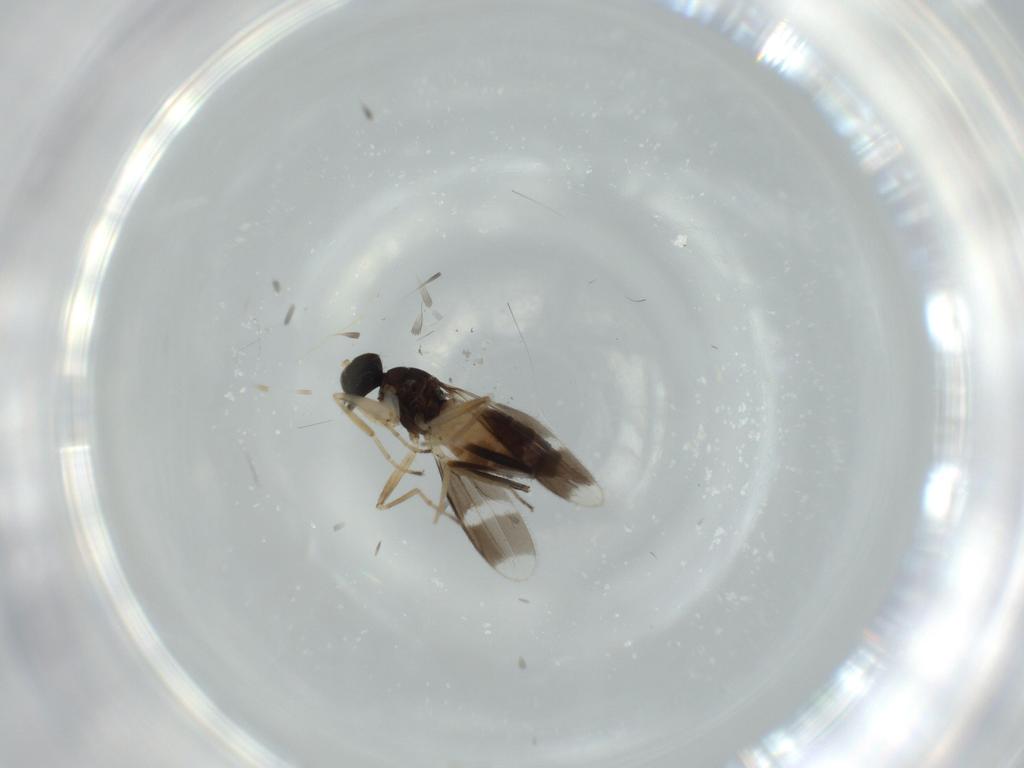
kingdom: Animalia
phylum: Arthropoda
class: Insecta
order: Diptera
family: Hybotidae
